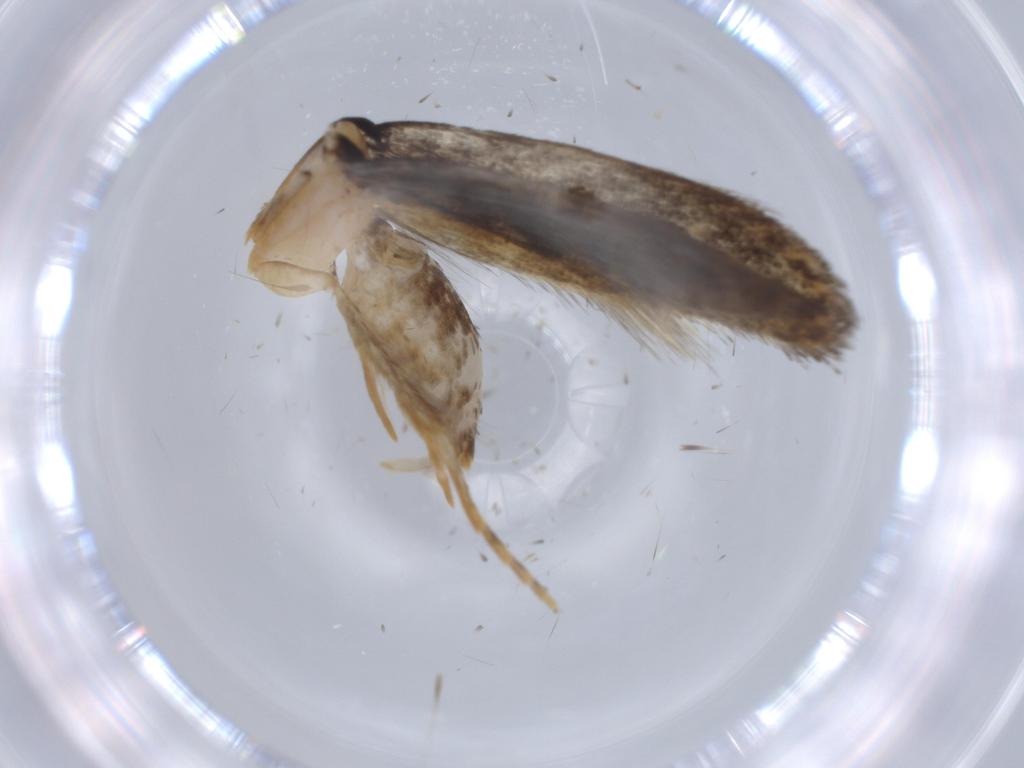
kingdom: Animalia
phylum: Arthropoda
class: Insecta
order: Lepidoptera
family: Tineidae
